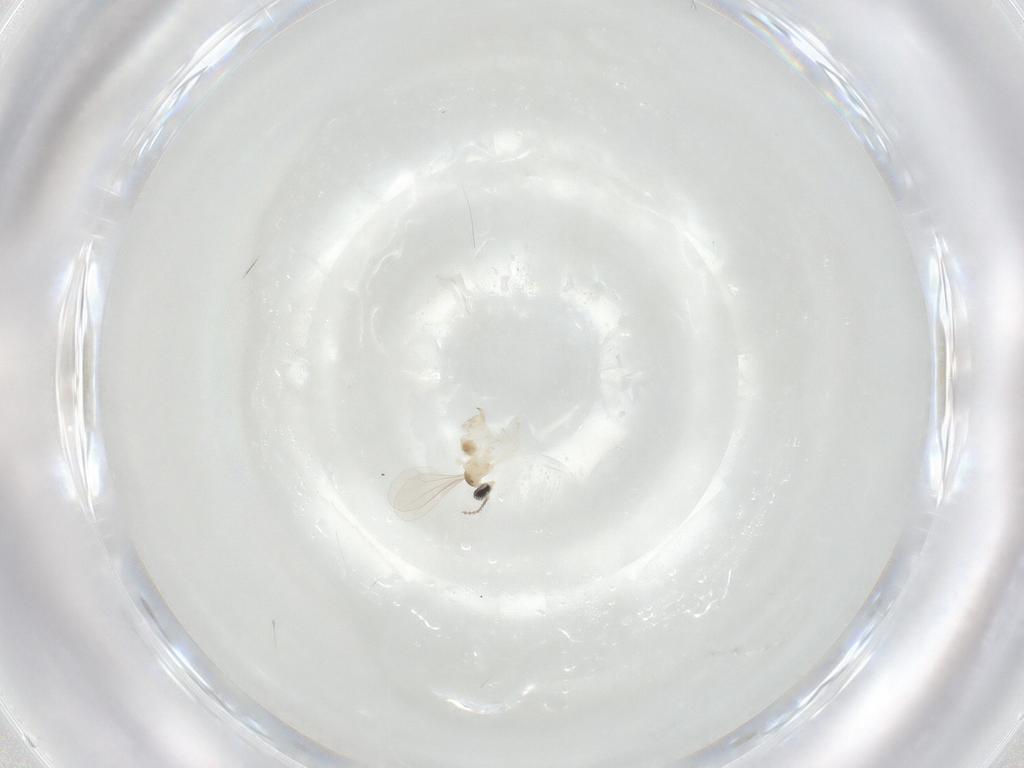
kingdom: Animalia
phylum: Arthropoda
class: Insecta
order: Diptera
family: Cecidomyiidae
